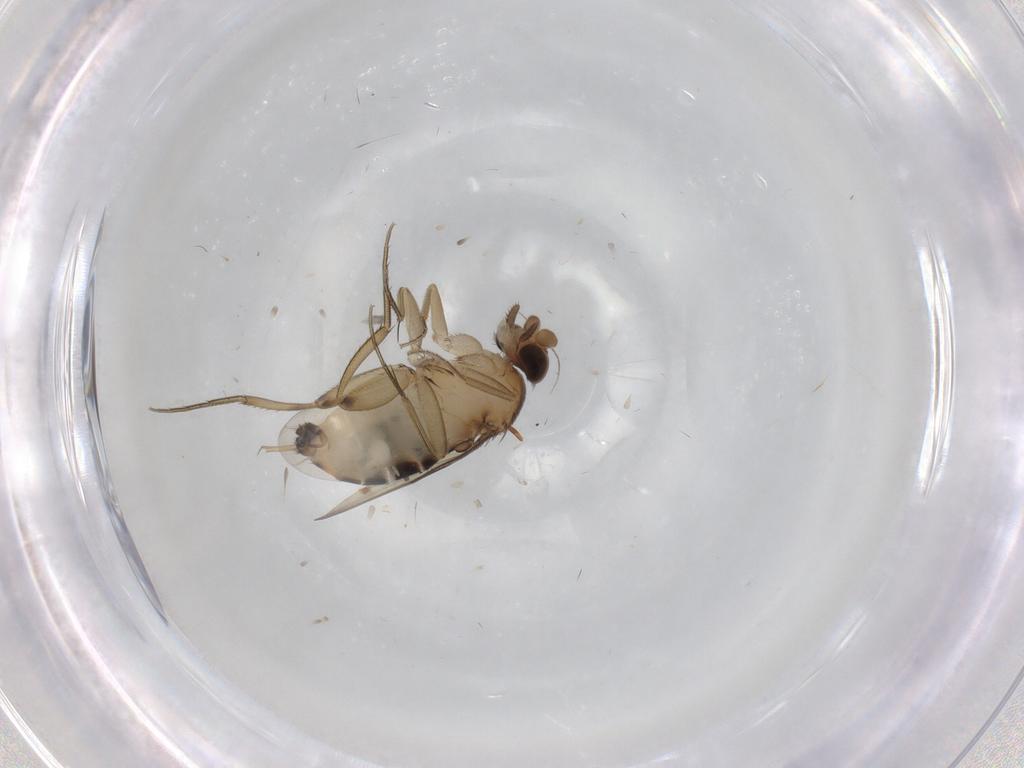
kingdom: Animalia
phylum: Arthropoda
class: Insecta
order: Diptera
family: Mycetophilidae
